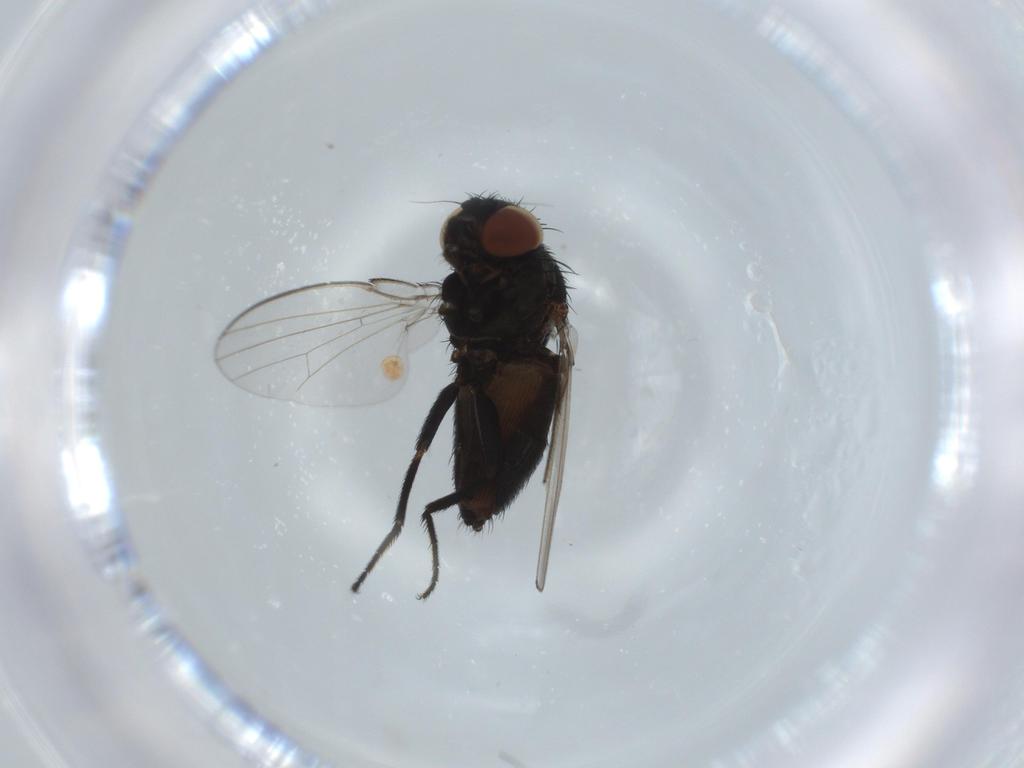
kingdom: Animalia
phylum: Arthropoda
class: Insecta
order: Diptera
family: Milichiidae
